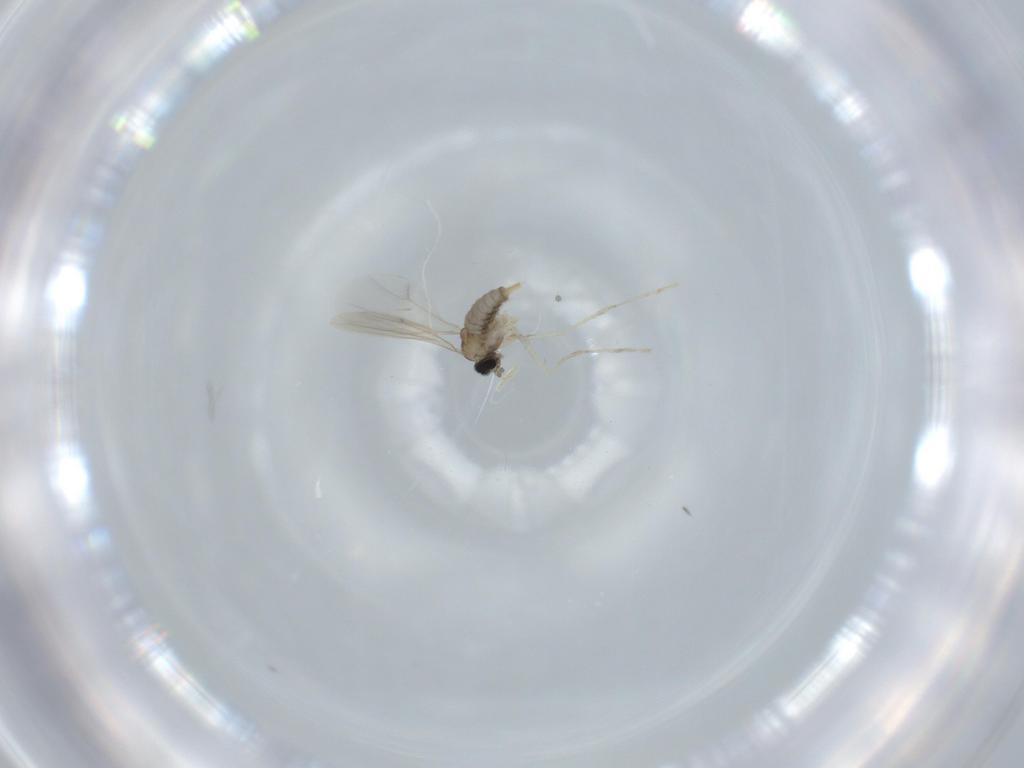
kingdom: Animalia
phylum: Arthropoda
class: Insecta
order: Diptera
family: Cecidomyiidae
